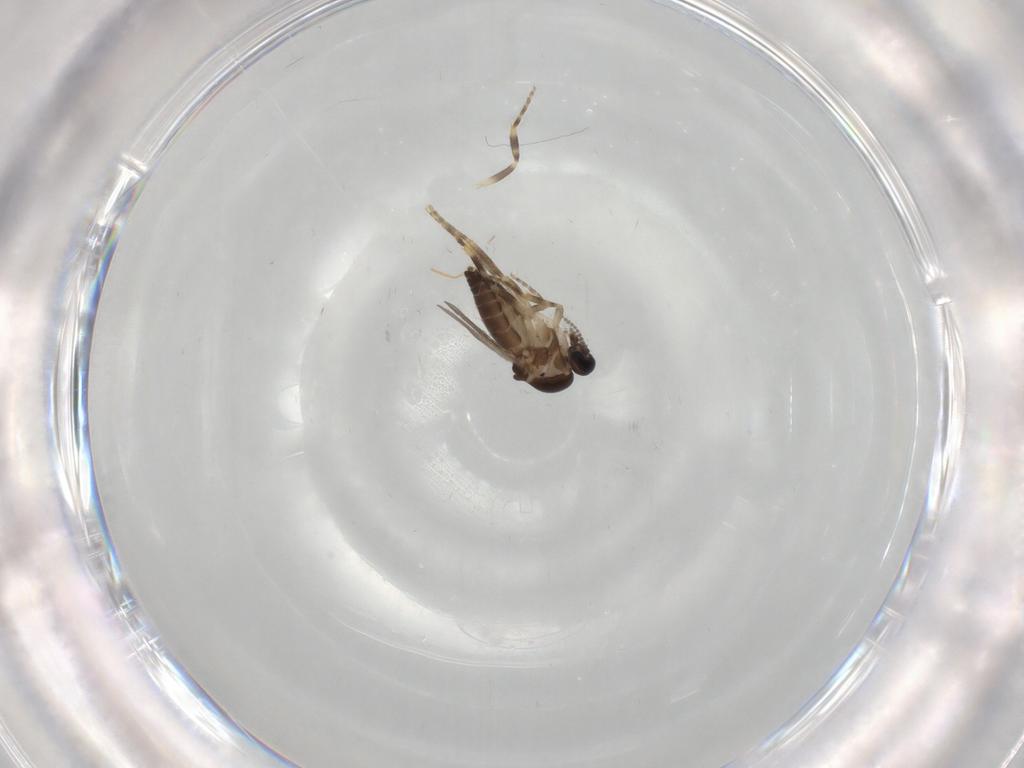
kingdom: Animalia
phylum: Arthropoda
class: Insecta
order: Diptera
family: Ceratopogonidae
